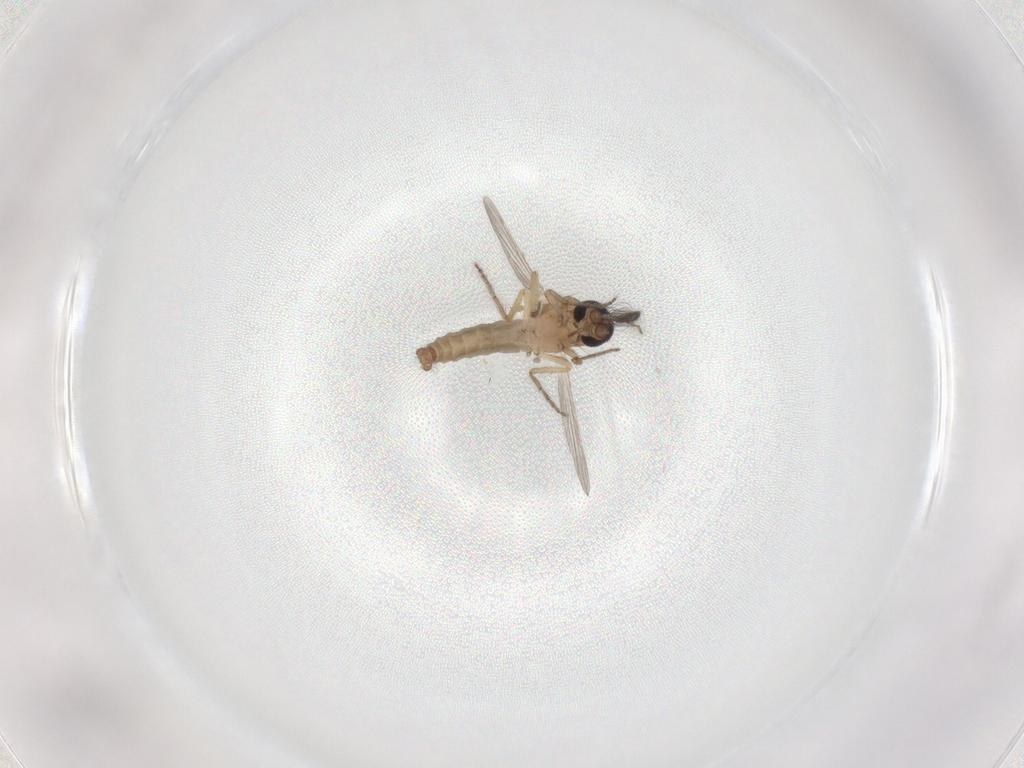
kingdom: Animalia
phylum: Arthropoda
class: Insecta
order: Diptera
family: Ceratopogonidae
